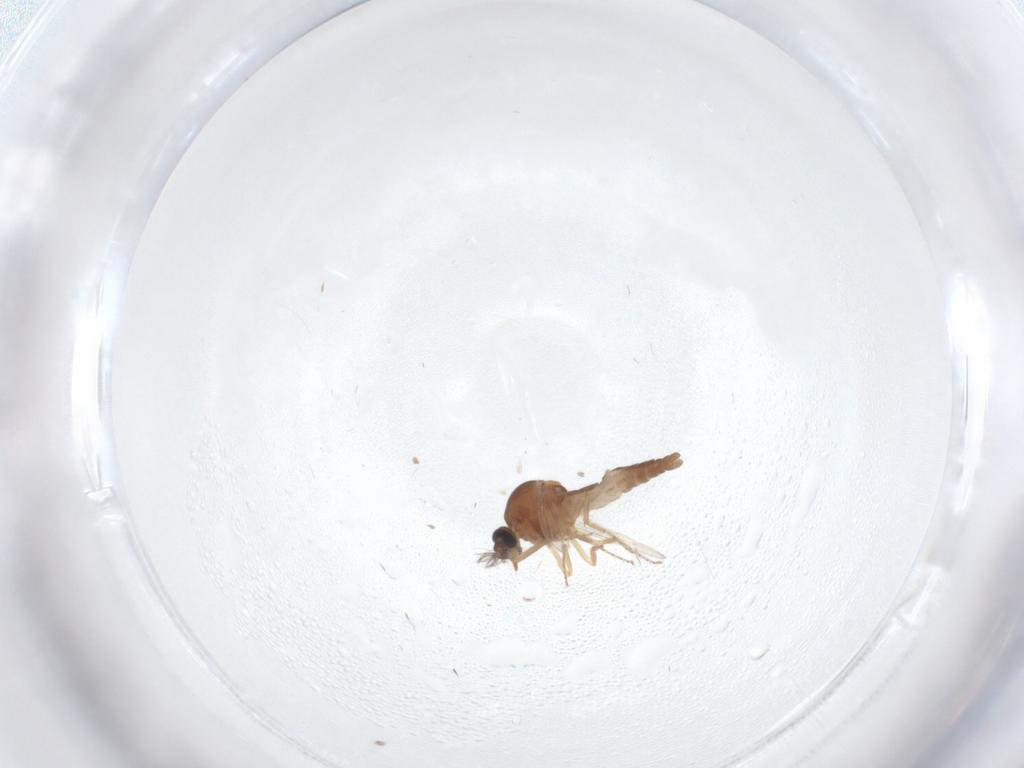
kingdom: Animalia
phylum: Arthropoda
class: Insecta
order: Diptera
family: Ceratopogonidae
